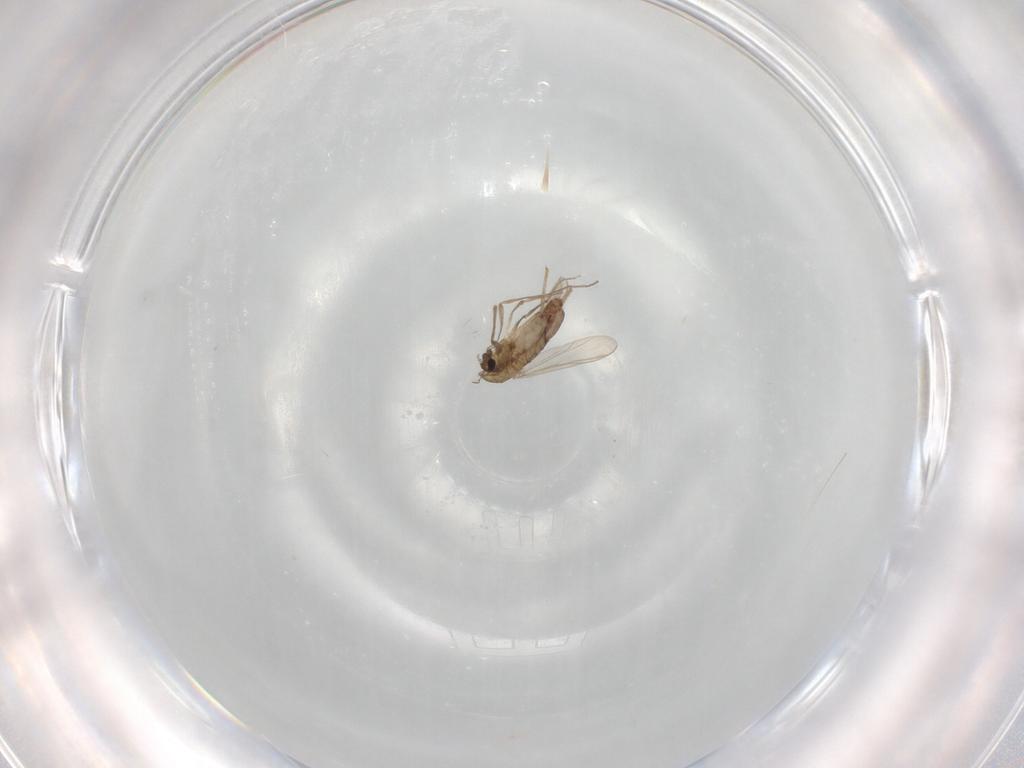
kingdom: Animalia
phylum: Arthropoda
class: Insecta
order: Diptera
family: Chironomidae
